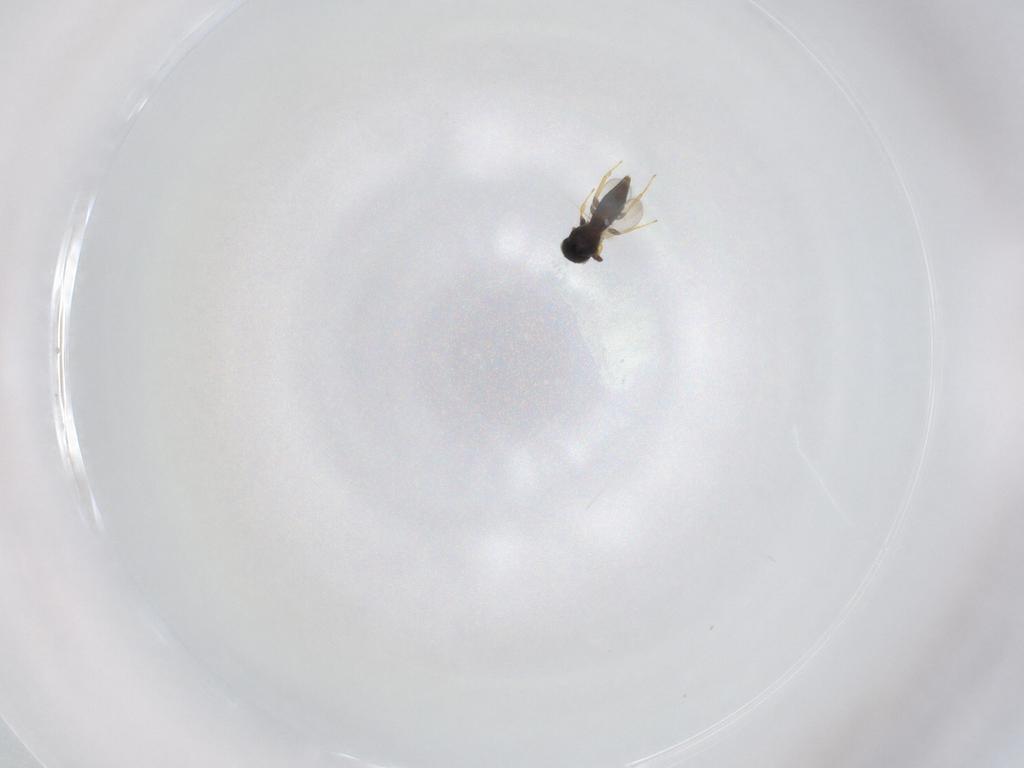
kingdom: Animalia
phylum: Arthropoda
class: Insecta
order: Hymenoptera
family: Platygastridae
